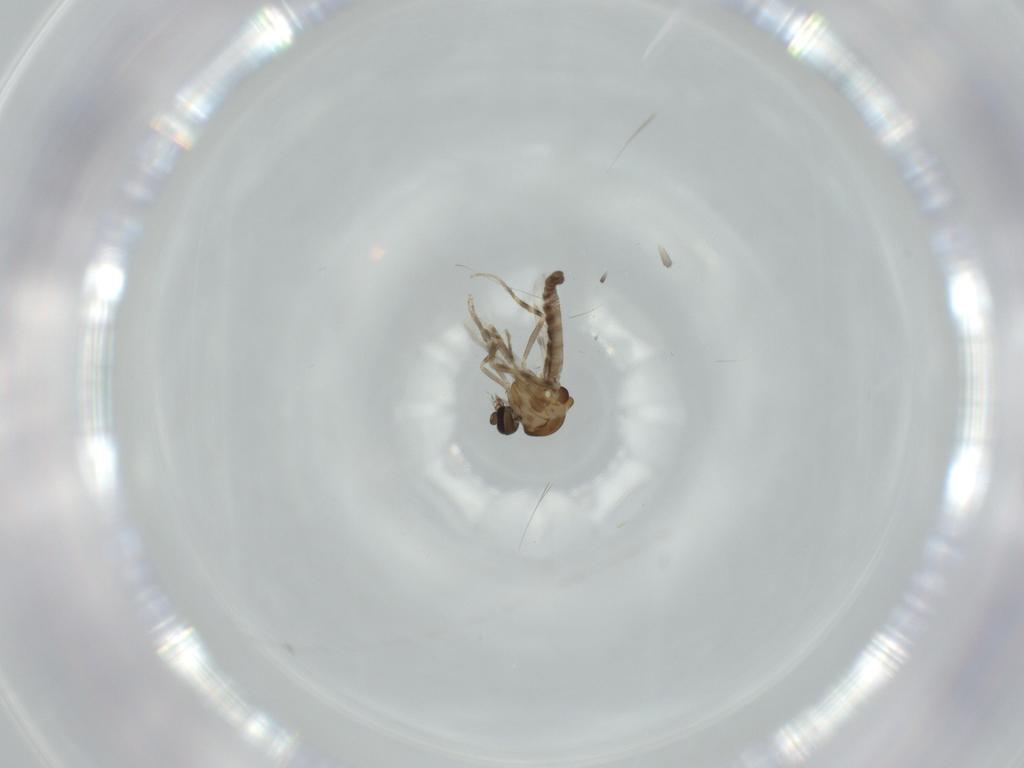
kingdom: Animalia
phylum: Arthropoda
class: Insecta
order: Diptera
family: Ceratopogonidae
